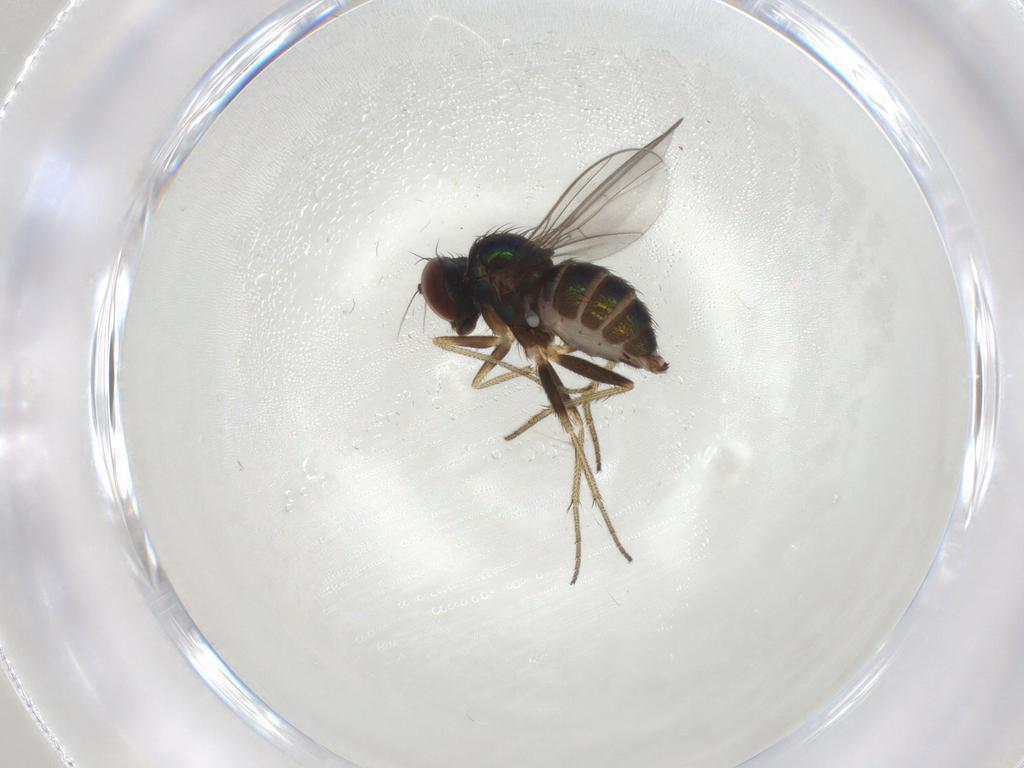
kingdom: Animalia
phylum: Arthropoda
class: Insecta
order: Diptera
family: Dolichopodidae
